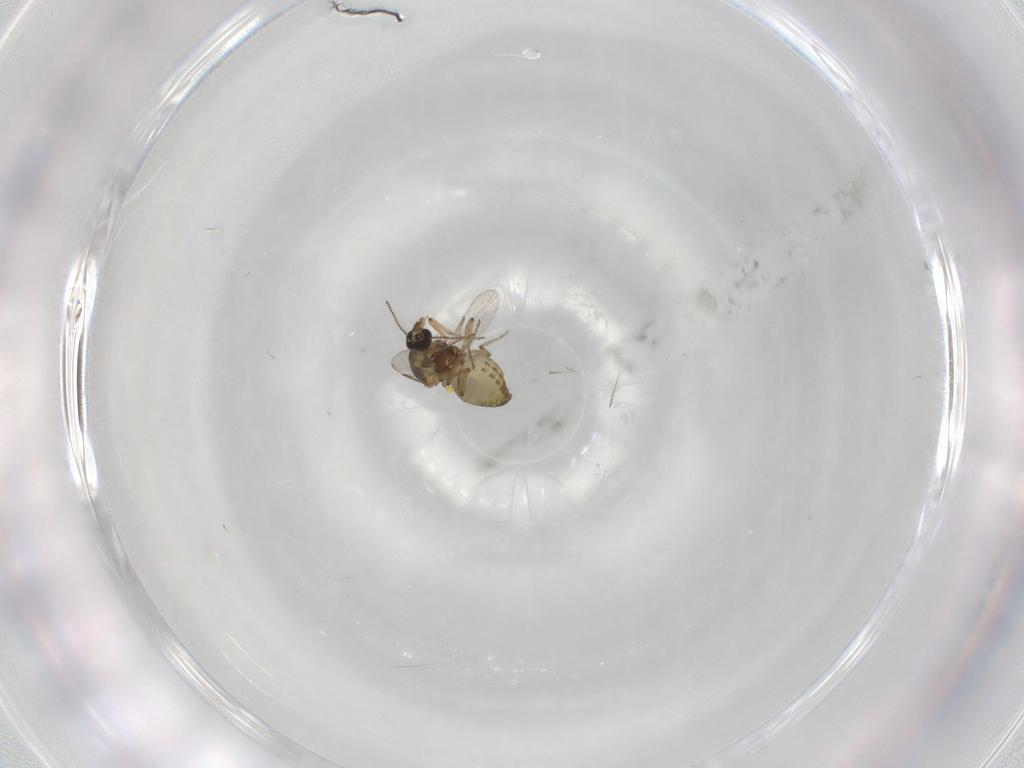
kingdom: Animalia
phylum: Arthropoda
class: Insecta
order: Diptera
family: Ceratopogonidae
